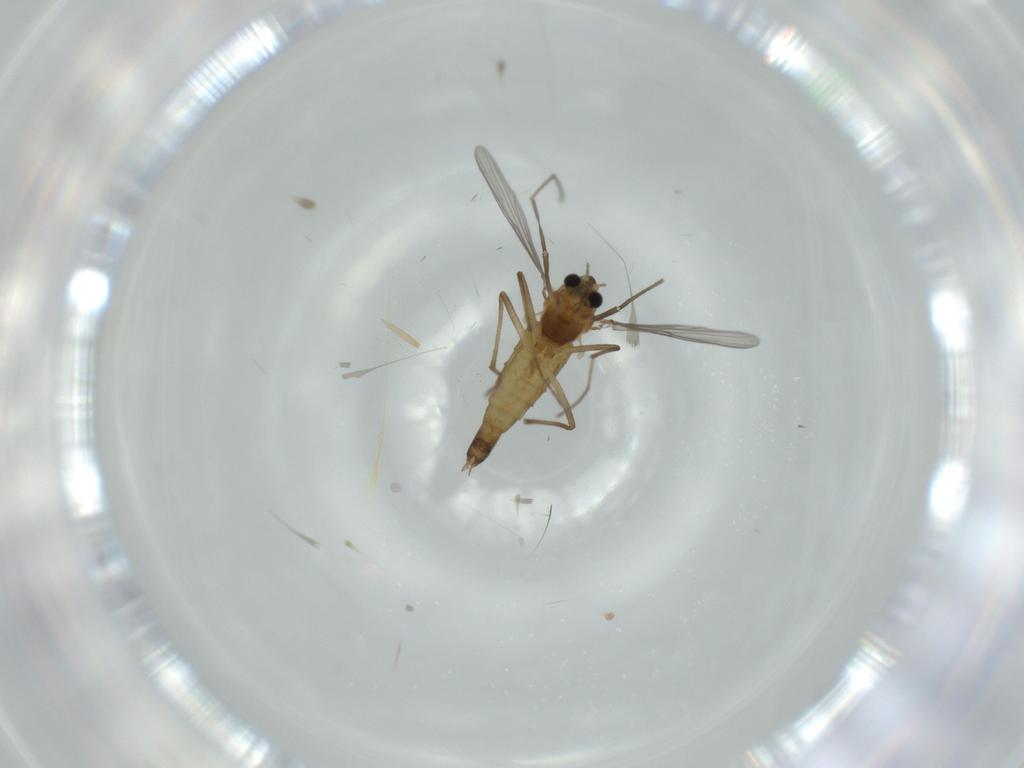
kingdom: Animalia
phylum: Arthropoda
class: Insecta
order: Diptera
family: Chironomidae
